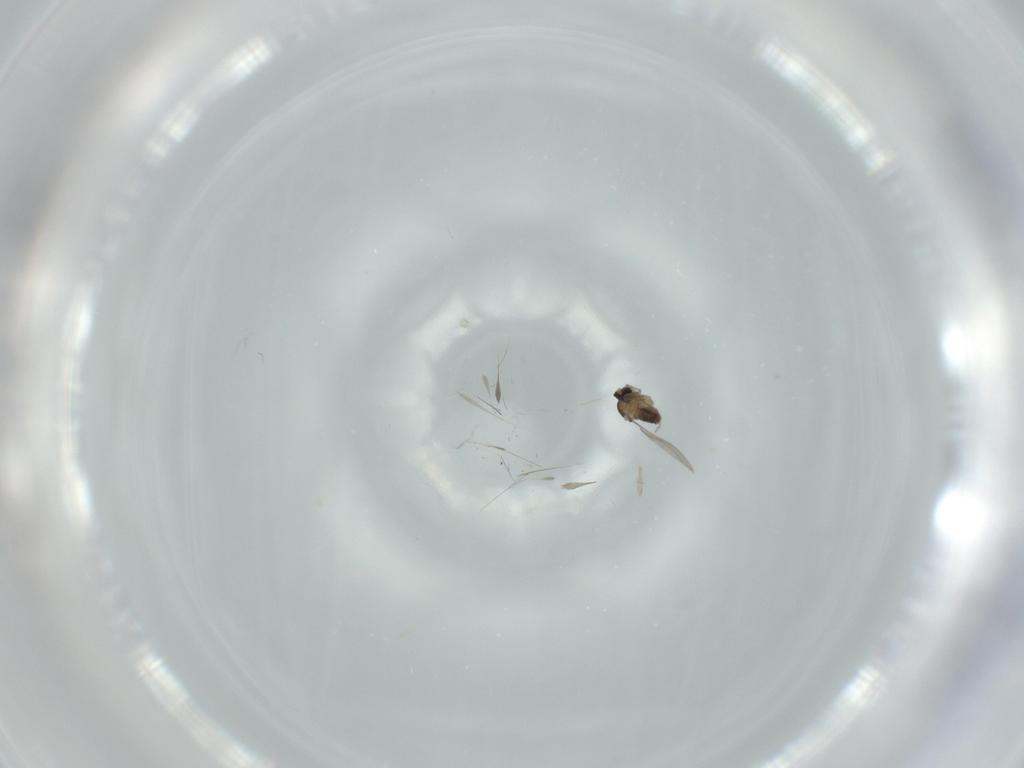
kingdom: Animalia
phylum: Arthropoda
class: Insecta
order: Diptera
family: Cecidomyiidae
